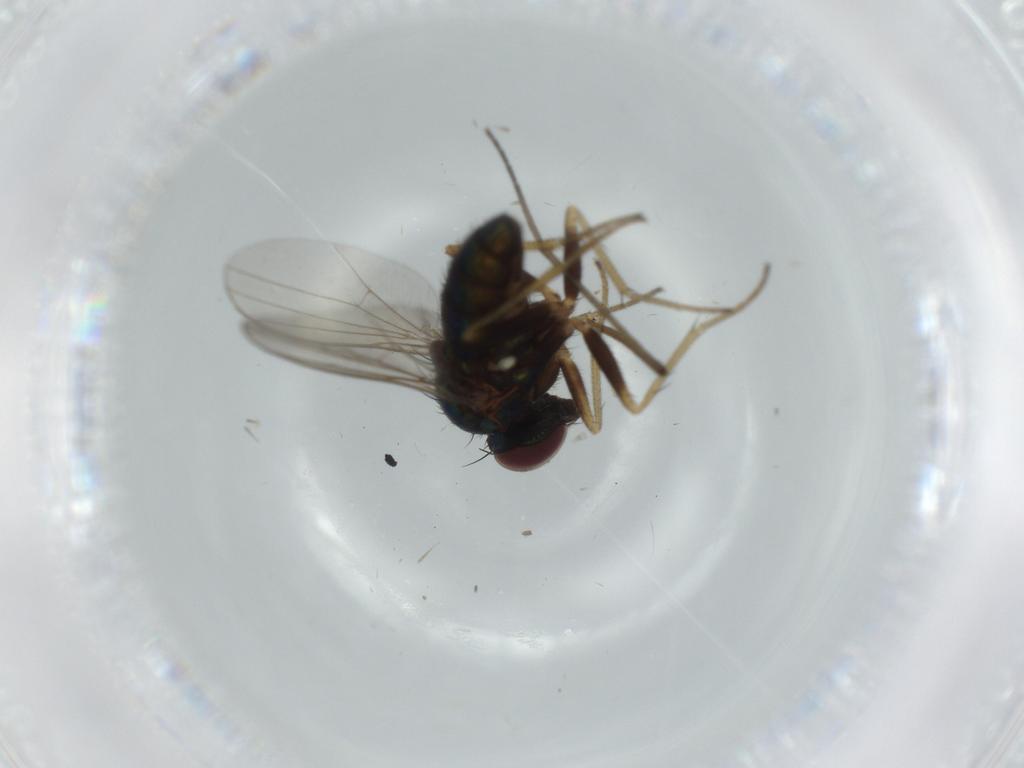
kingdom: Animalia
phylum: Arthropoda
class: Insecta
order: Diptera
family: Sciaridae
